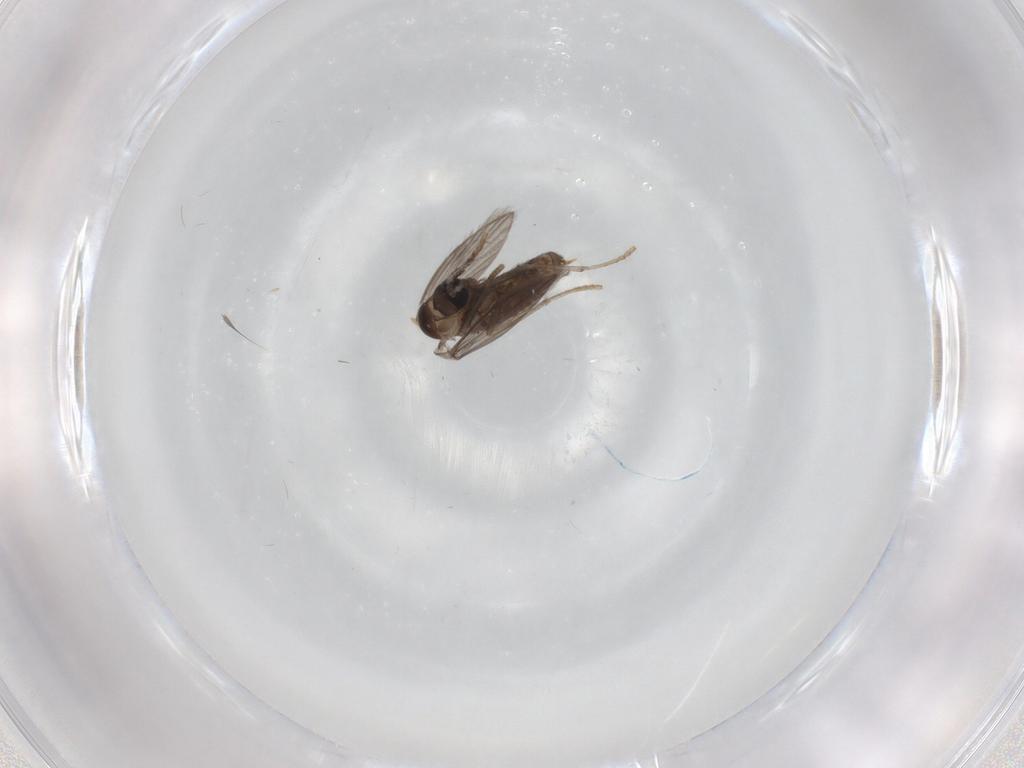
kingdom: Animalia
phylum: Arthropoda
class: Insecta
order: Diptera
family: Psychodidae
